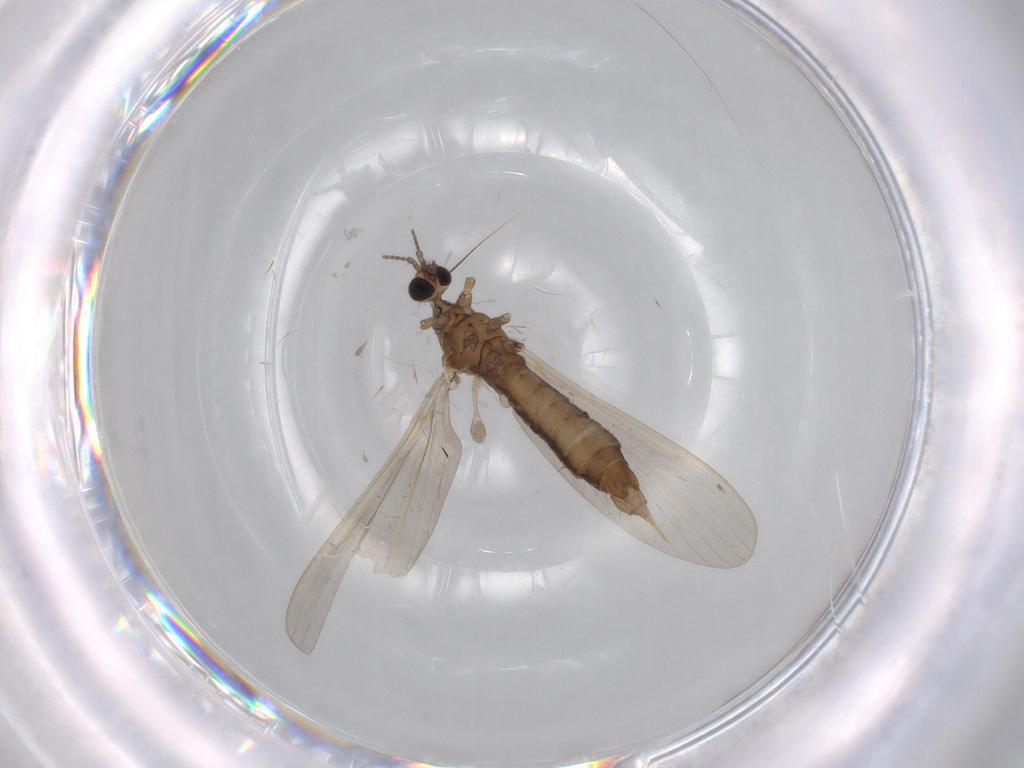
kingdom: Animalia
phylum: Arthropoda
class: Insecta
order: Diptera
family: Limoniidae
